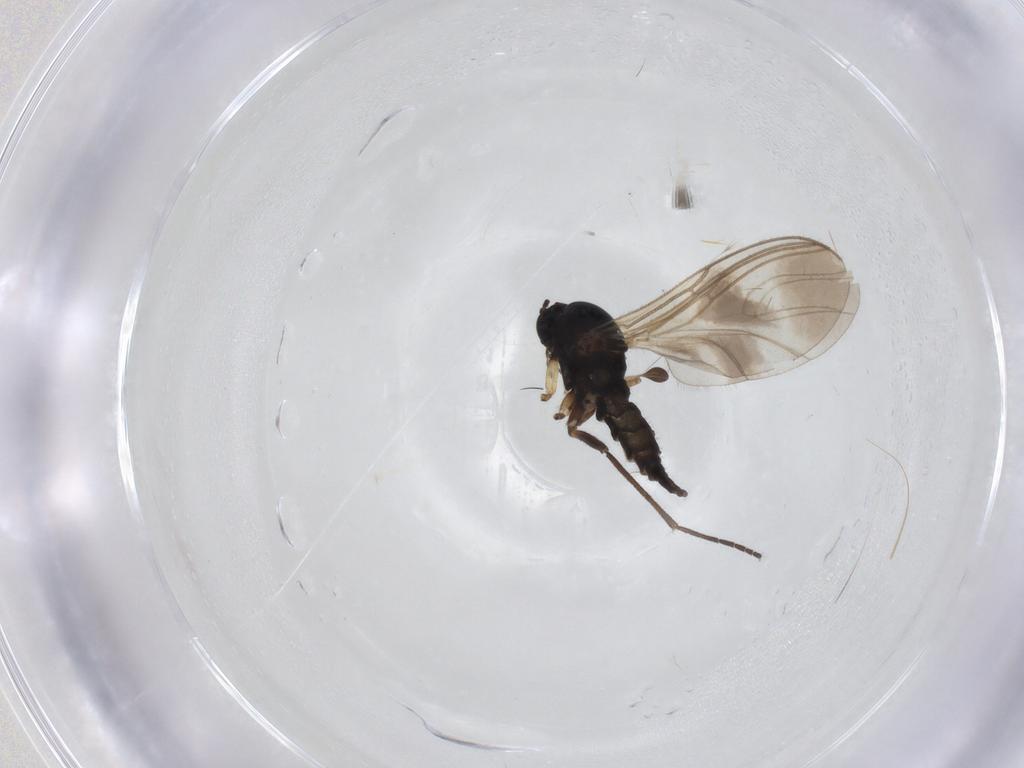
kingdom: Animalia
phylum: Arthropoda
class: Insecta
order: Diptera
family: Sciaridae
